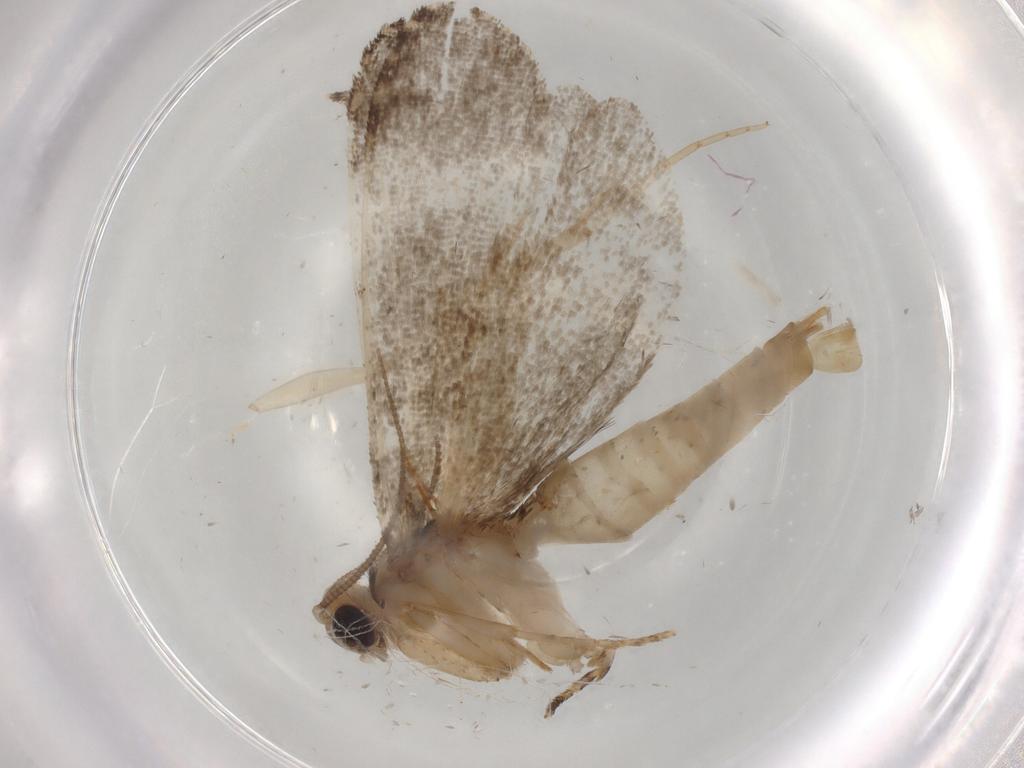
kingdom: Animalia
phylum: Arthropoda
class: Insecta
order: Lepidoptera
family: Tineidae
